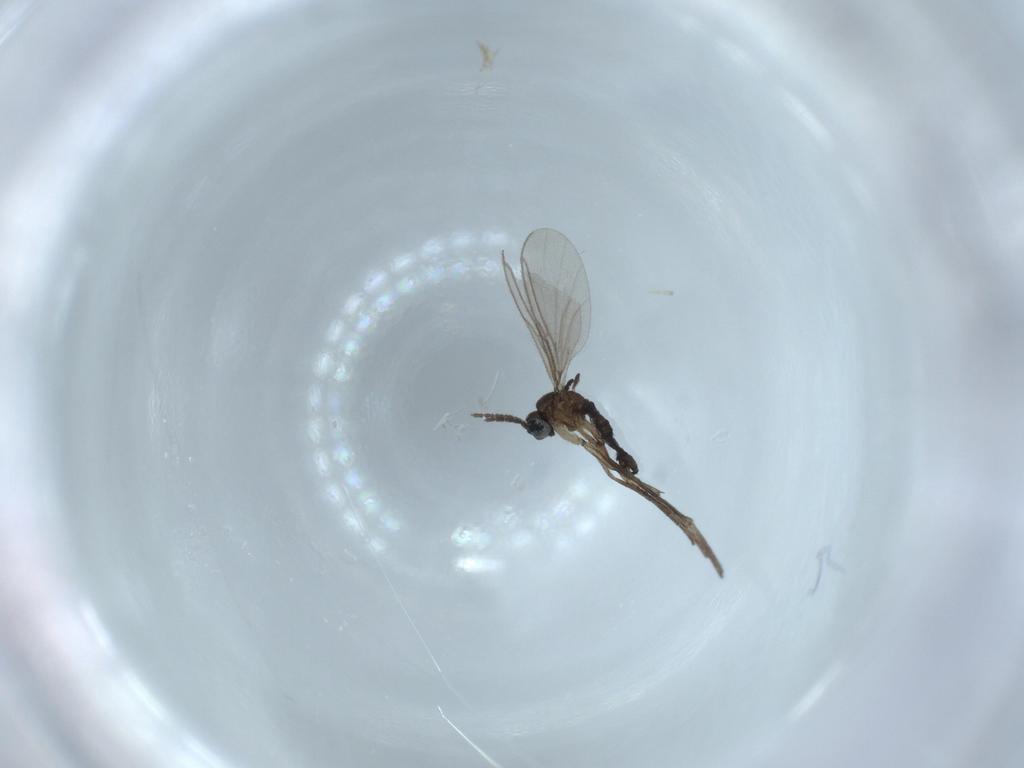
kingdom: Animalia
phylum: Arthropoda
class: Insecta
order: Diptera
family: Sciaridae
